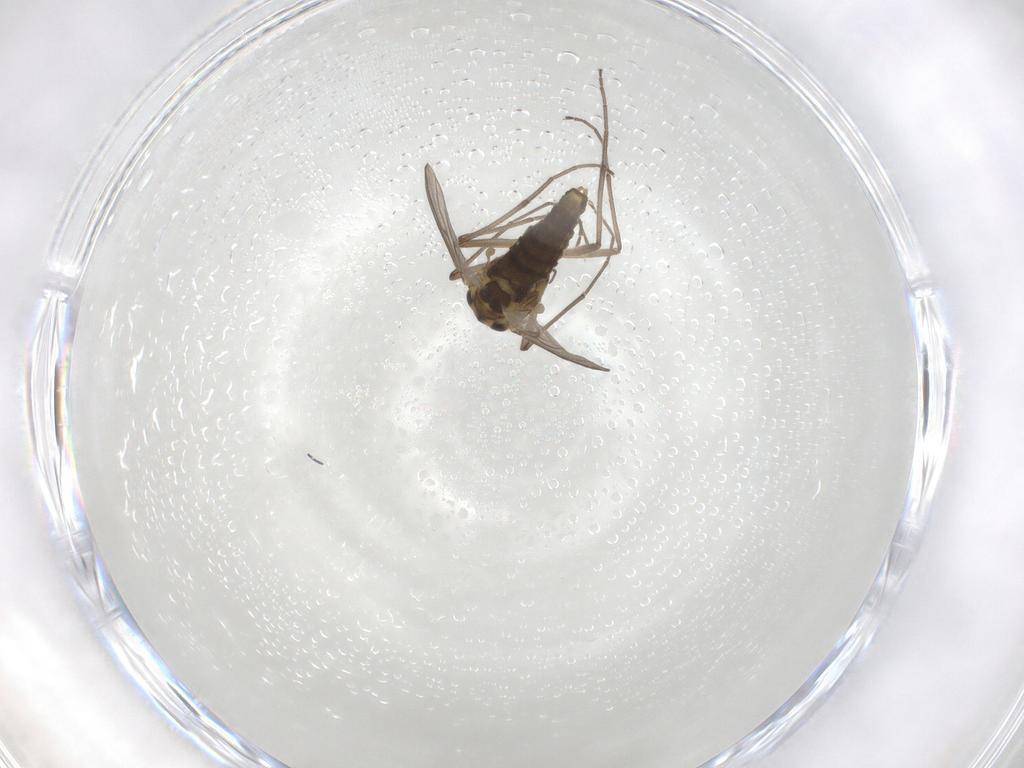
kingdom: Animalia
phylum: Arthropoda
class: Insecta
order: Diptera
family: Chironomidae
